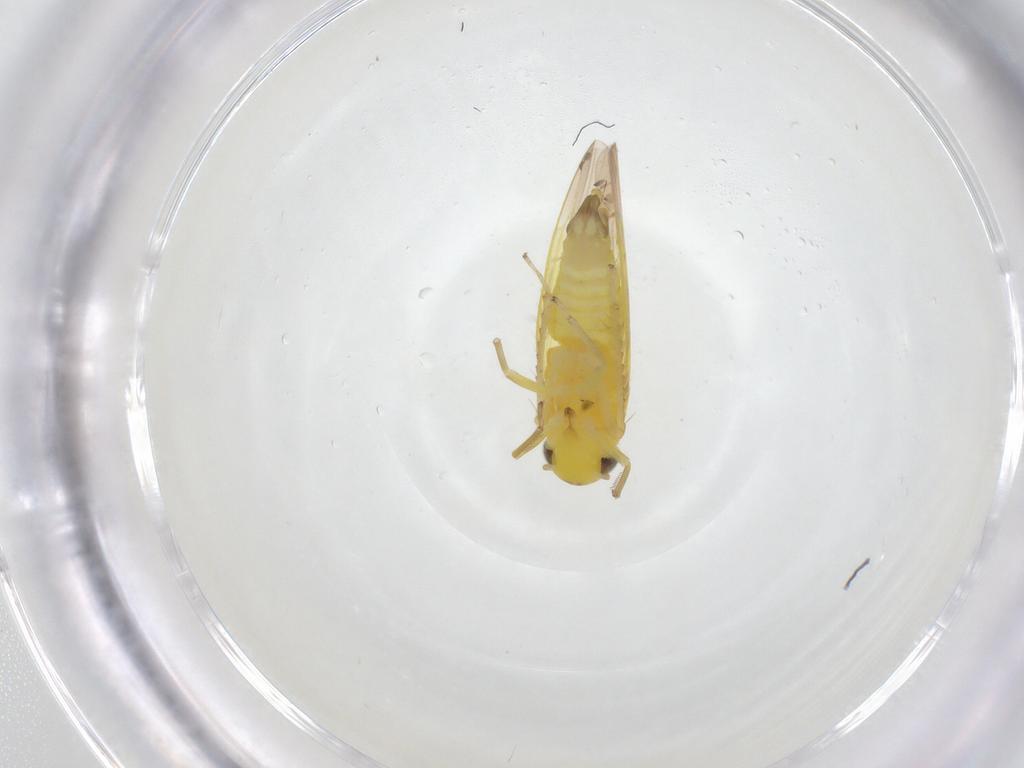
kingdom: Animalia
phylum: Arthropoda
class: Insecta
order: Hemiptera
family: Cicadellidae
